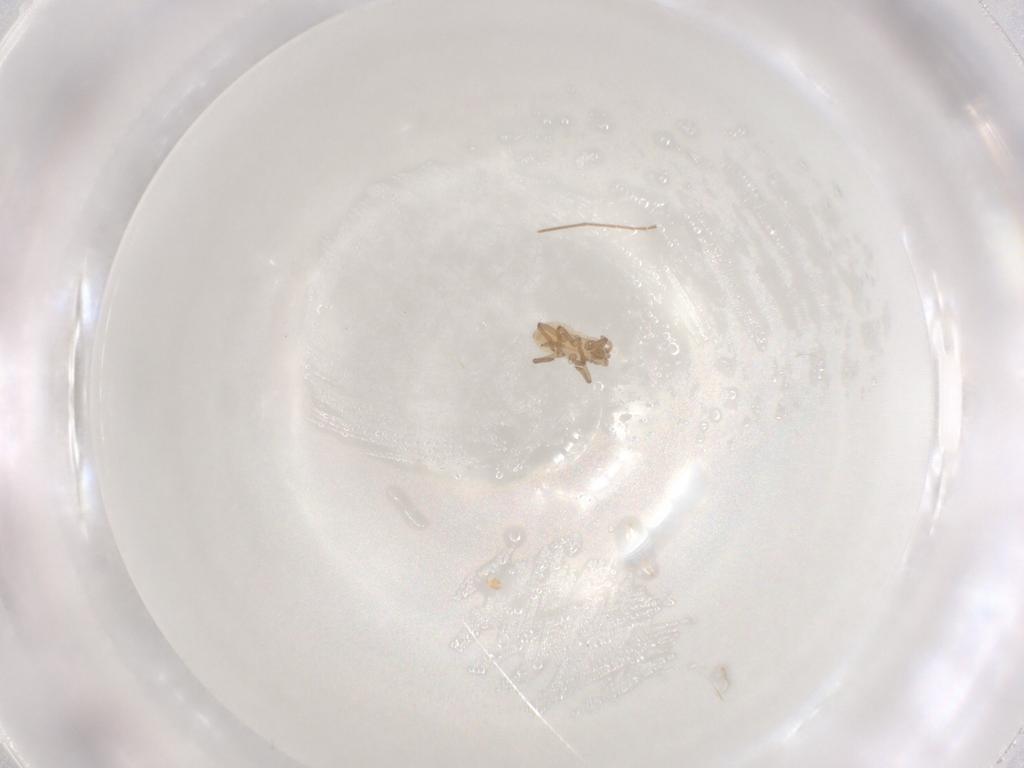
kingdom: Animalia
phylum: Arthropoda
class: Insecta
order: Hemiptera
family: Aphididae
